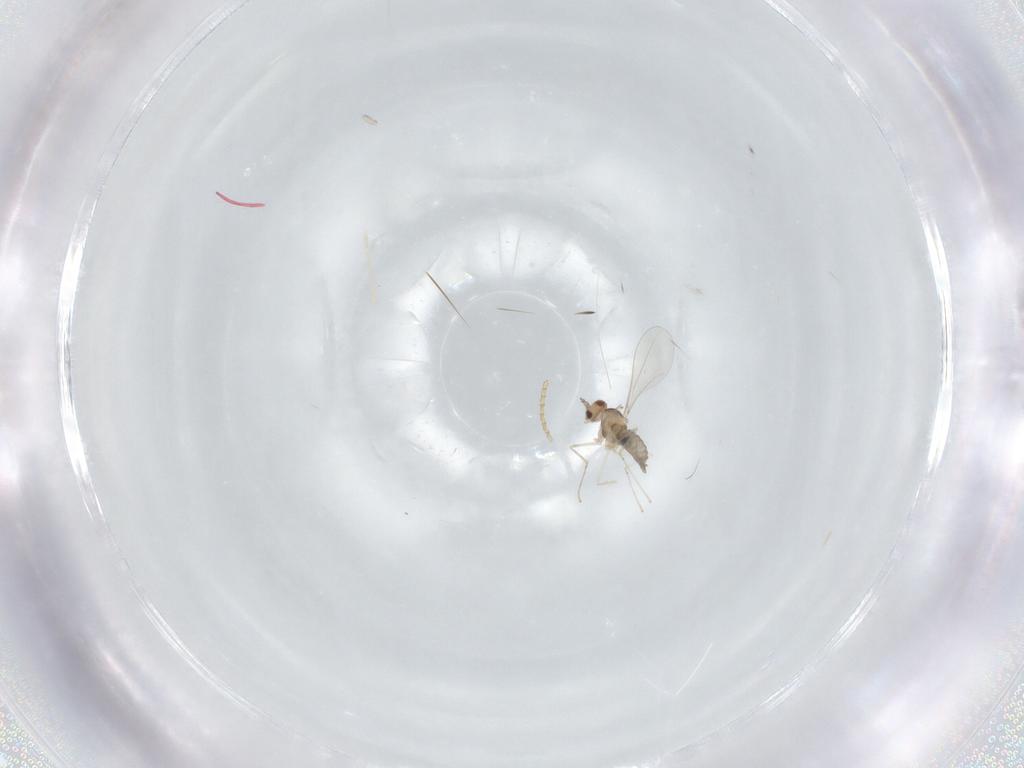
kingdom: Animalia
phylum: Arthropoda
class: Insecta
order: Diptera
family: Cecidomyiidae
